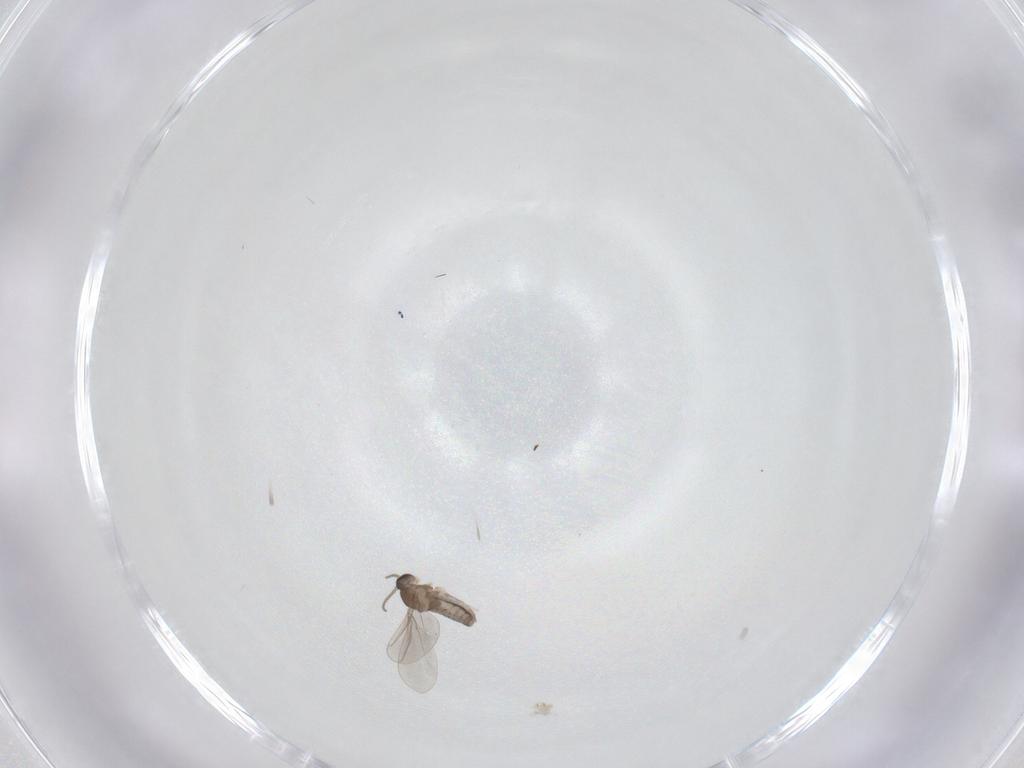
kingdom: Animalia
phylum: Arthropoda
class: Insecta
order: Diptera
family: Cecidomyiidae
